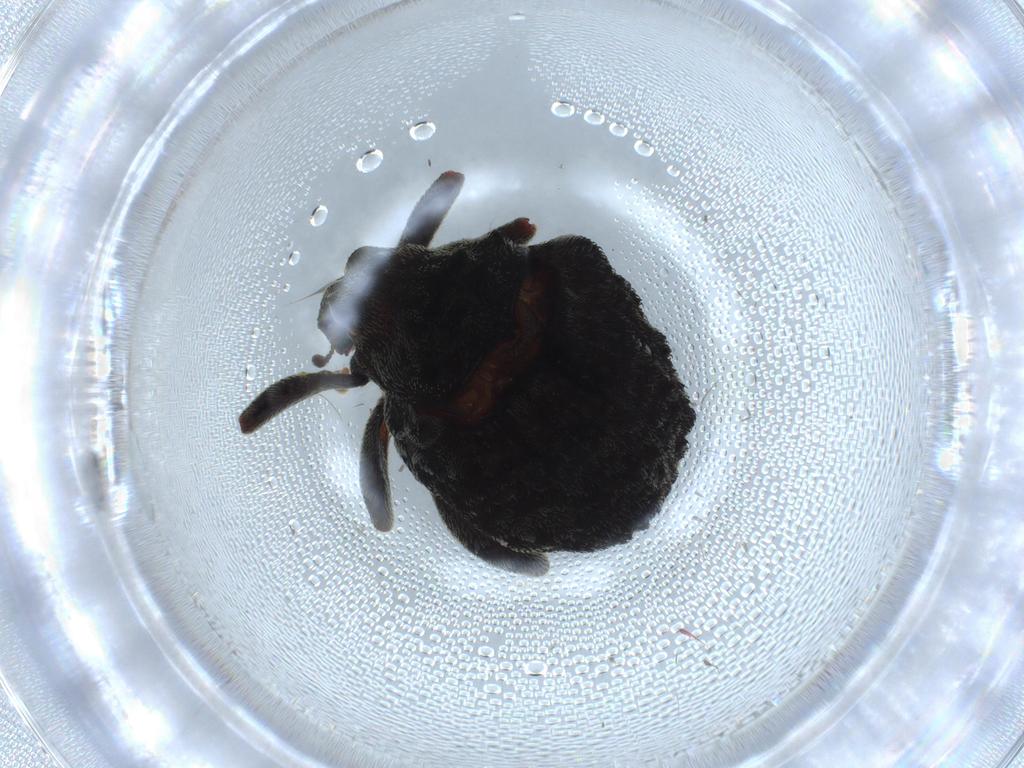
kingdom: Animalia
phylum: Arthropoda
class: Insecta
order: Coleoptera
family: Curculionidae
